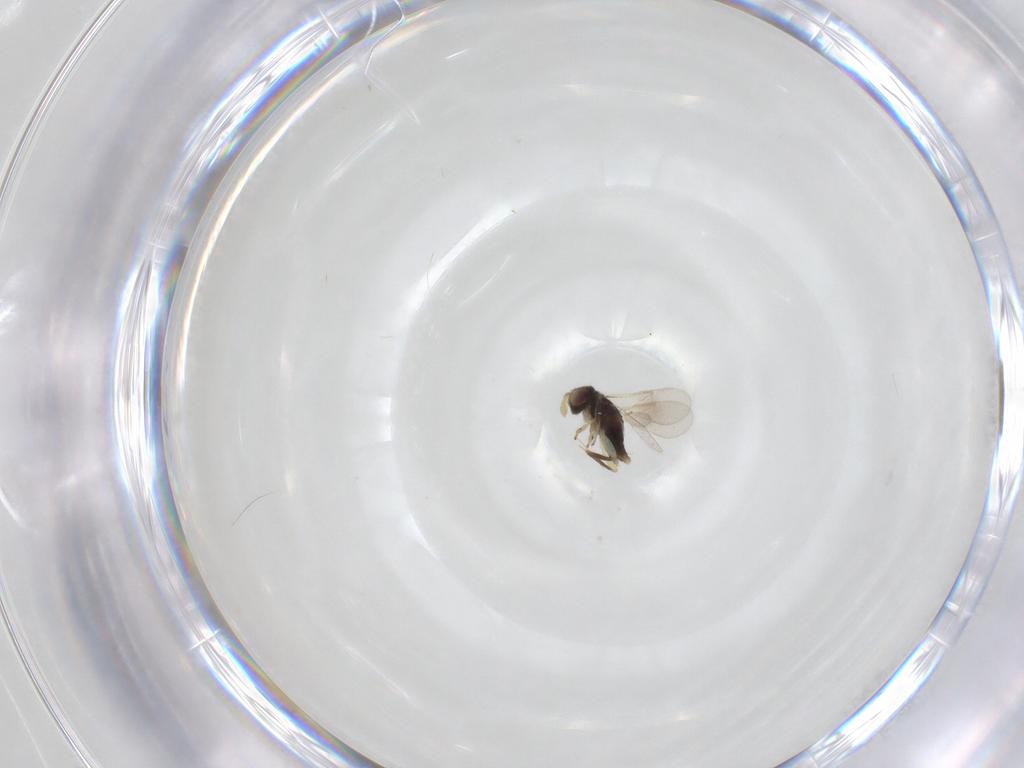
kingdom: Animalia
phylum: Arthropoda
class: Insecta
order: Hymenoptera
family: Aphelinidae
